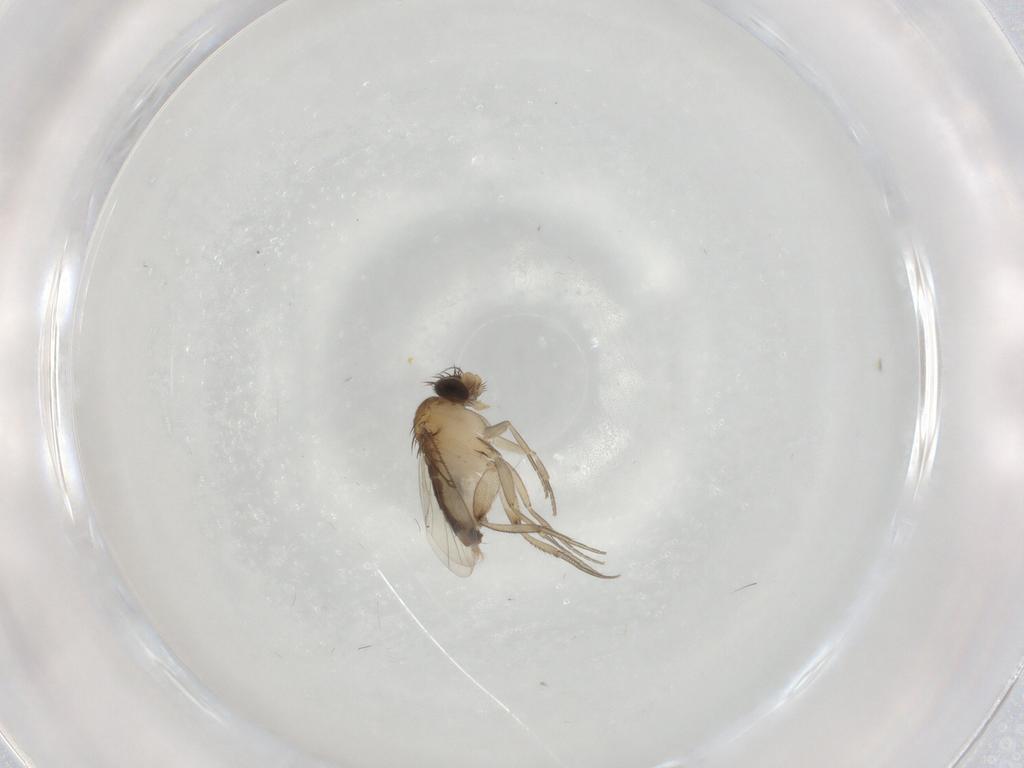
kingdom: Animalia
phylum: Arthropoda
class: Insecta
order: Diptera
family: Phoridae
